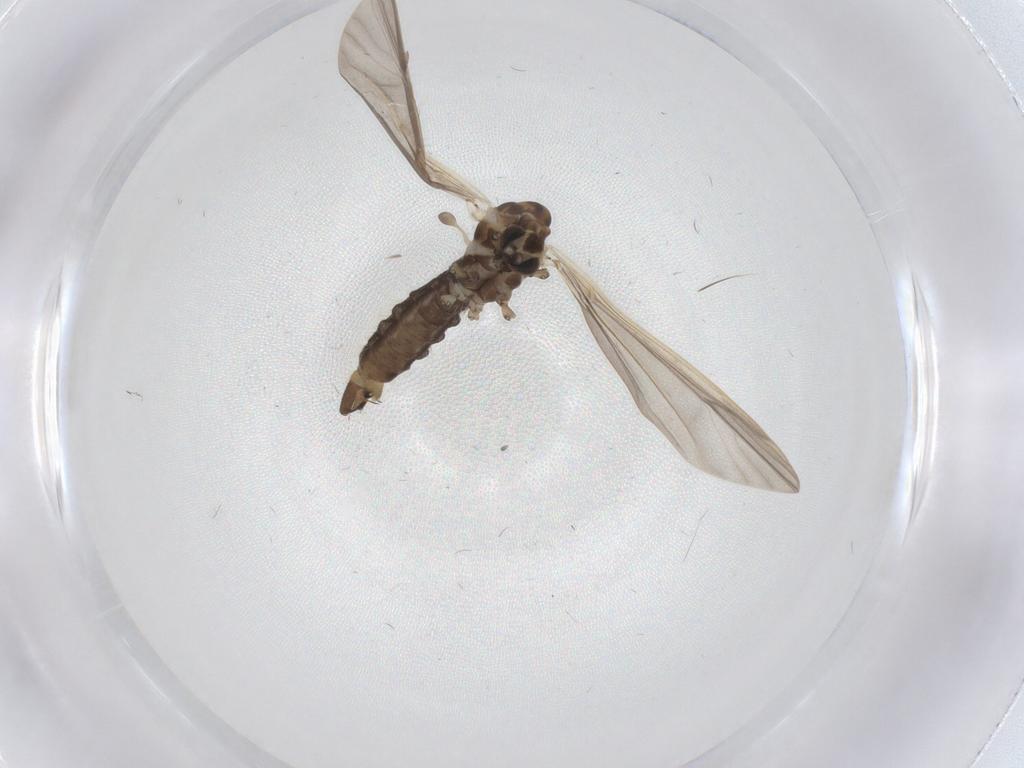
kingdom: Animalia
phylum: Arthropoda
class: Insecta
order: Diptera
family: Limoniidae
